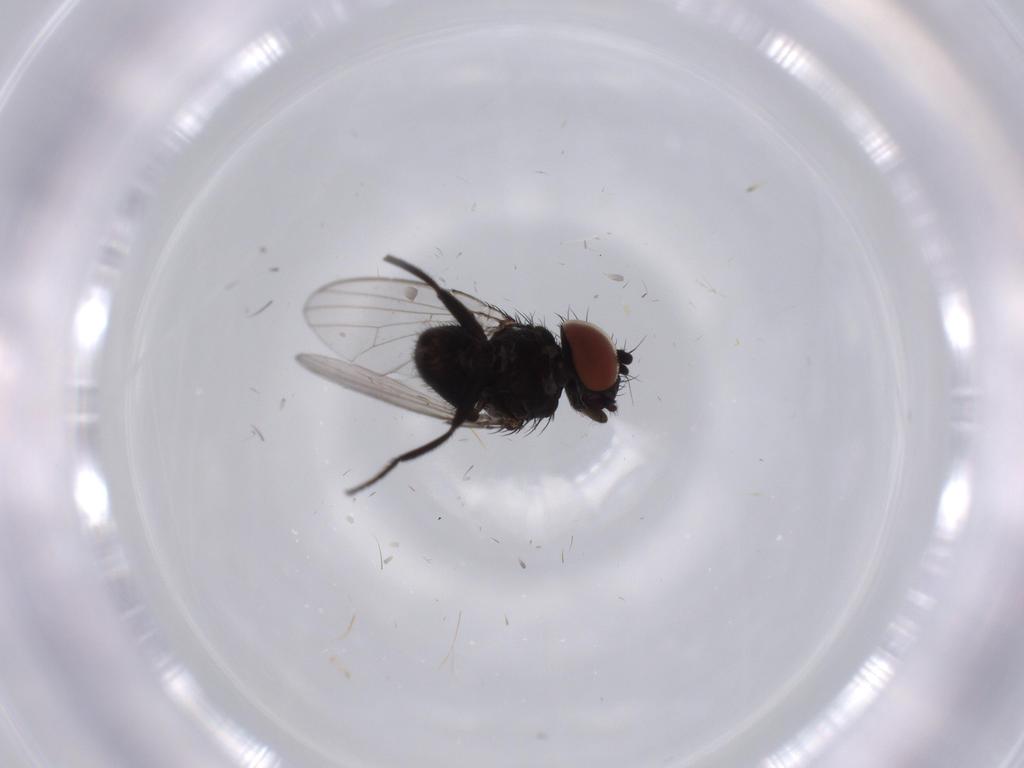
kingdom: Animalia
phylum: Arthropoda
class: Insecta
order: Diptera
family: Milichiidae
